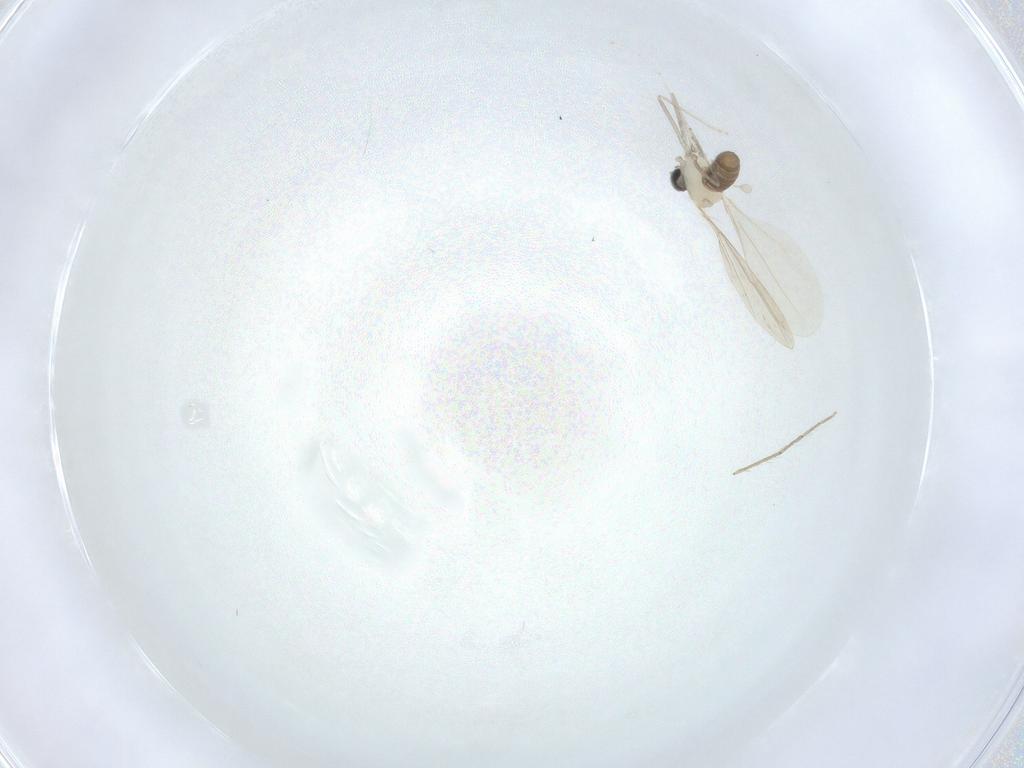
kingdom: Animalia
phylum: Arthropoda
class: Insecta
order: Diptera
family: Chironomidae
